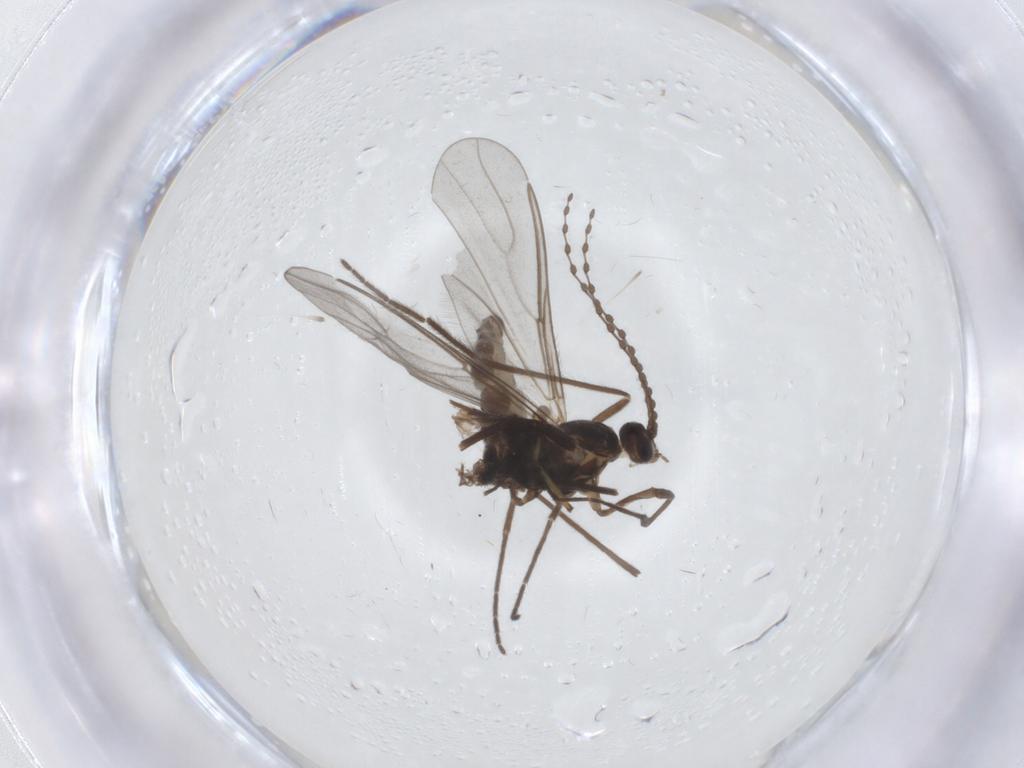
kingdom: Animalia
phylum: Arthropoda
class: Insecta
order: Diptera
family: Cecidomyiidae
